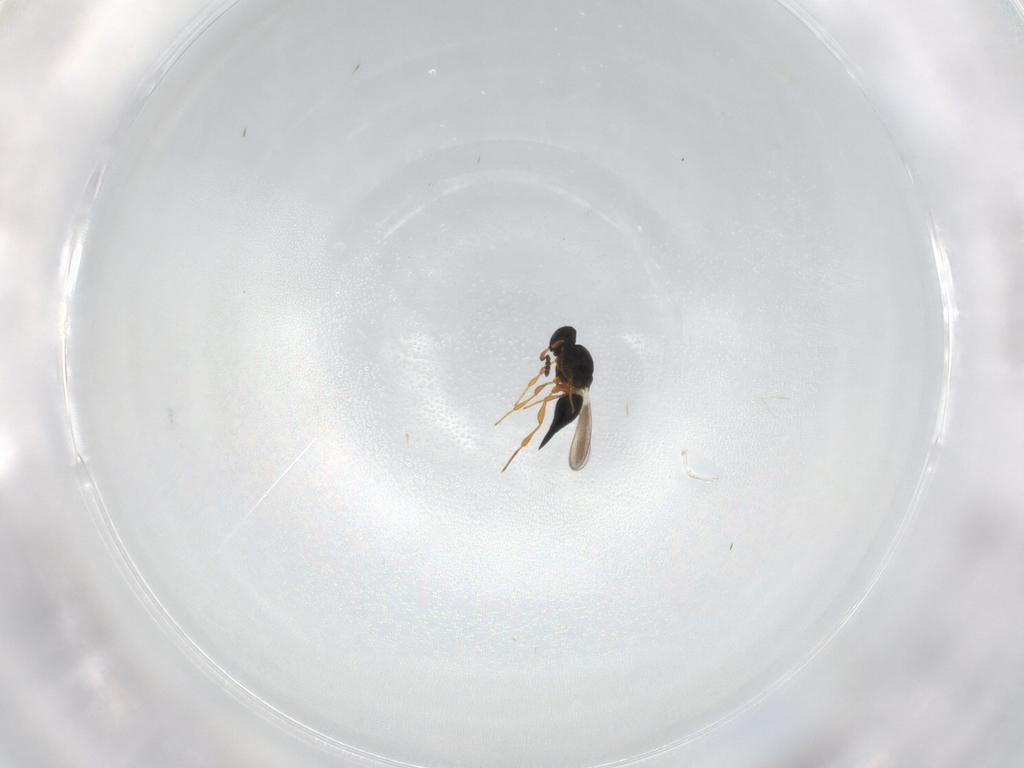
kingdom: Animalia
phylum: Arthropoda
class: Insecta
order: Hymenoptera
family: Platygastridae
